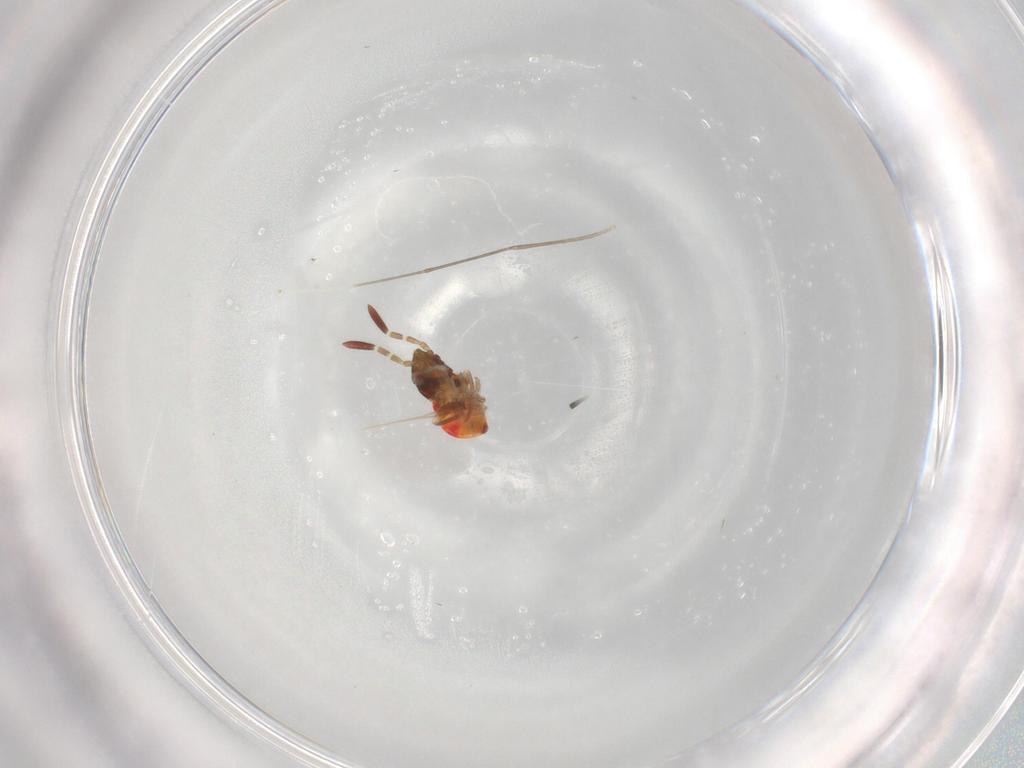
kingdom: Animalia
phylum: Arthropoda
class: Insecta
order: Hemiptera
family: Rhyparochromidae
